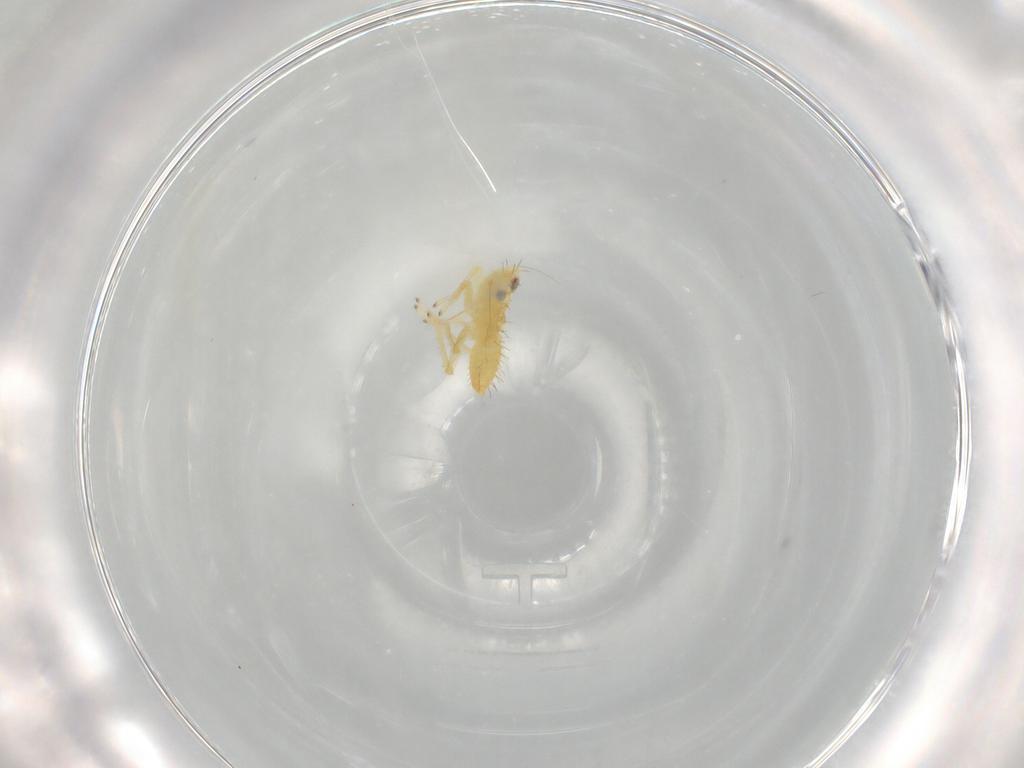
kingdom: Animalia
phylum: Arthropoda
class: Insecta
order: Hemiptera
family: Cicadellidae
